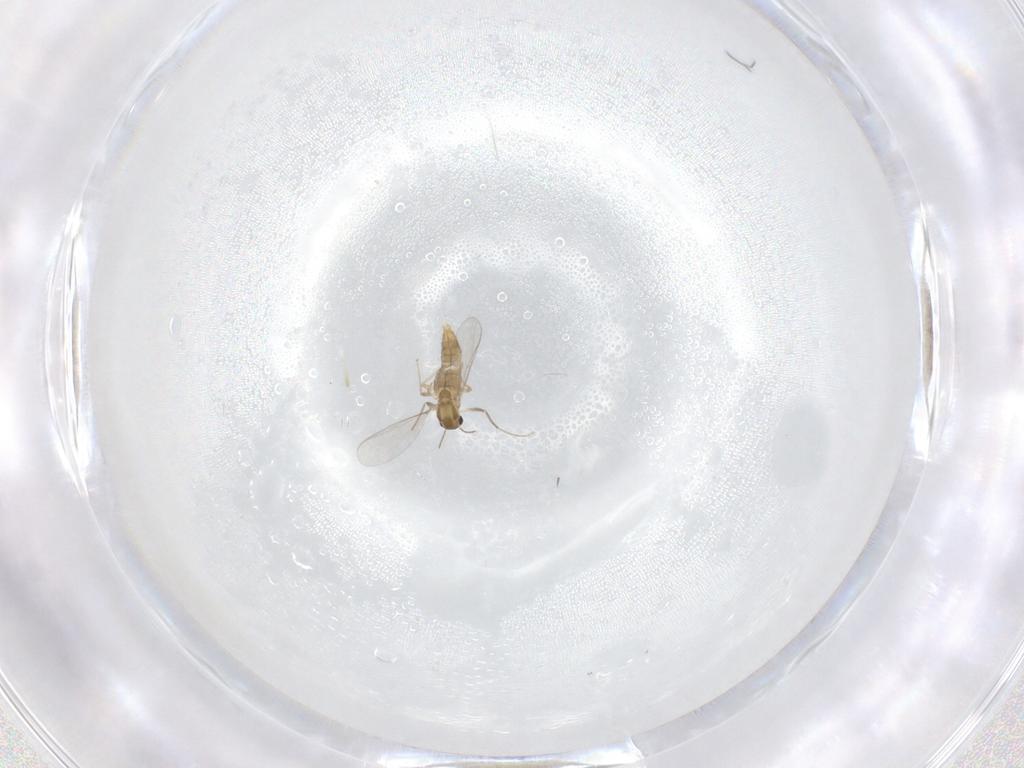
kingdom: Animalia
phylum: Arthropoda
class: Insecta
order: Diptera
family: Chironomidae
